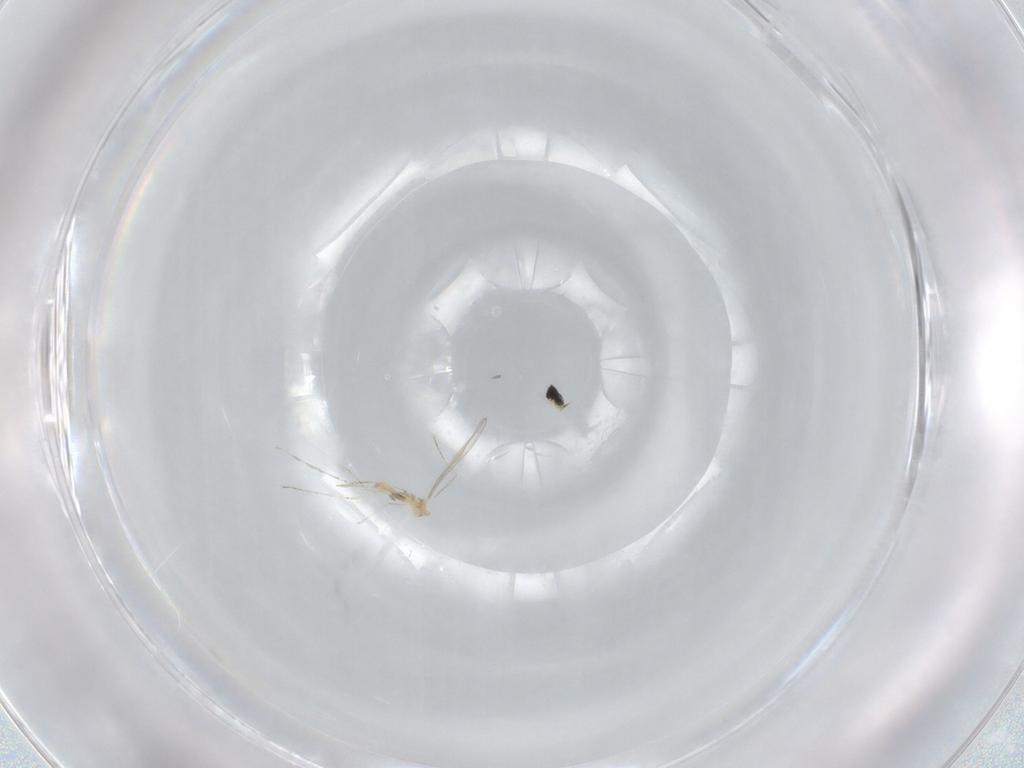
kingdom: Animalia
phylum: Arthropoda
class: Insecta
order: Diptera
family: Cecidomyiidae
